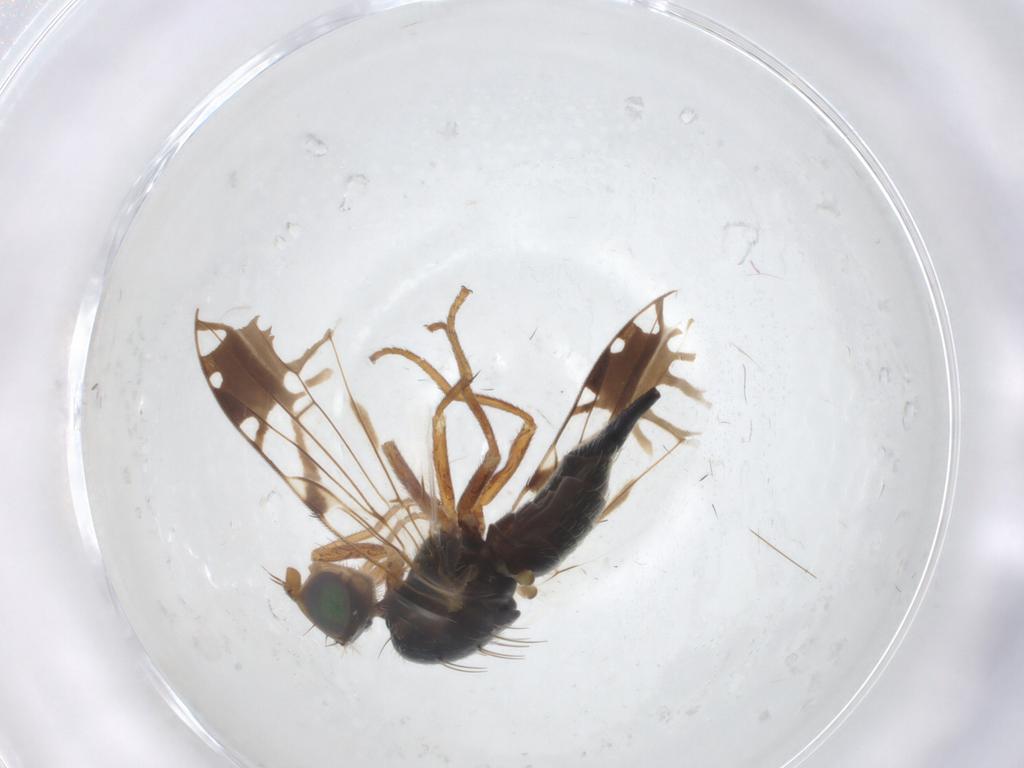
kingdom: Animalia
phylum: Arthropoda
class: Insecta
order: Diptera
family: Tephritidae
